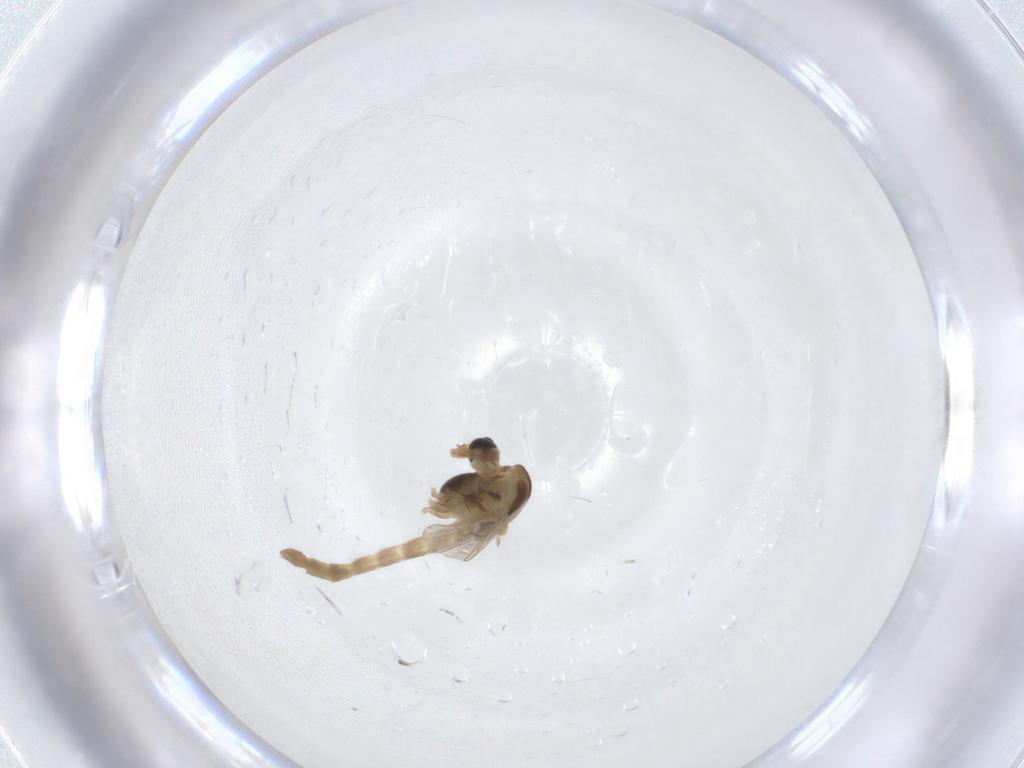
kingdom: Animalia
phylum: Arthropoda
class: Insecta
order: Diptera
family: Chironomidae
